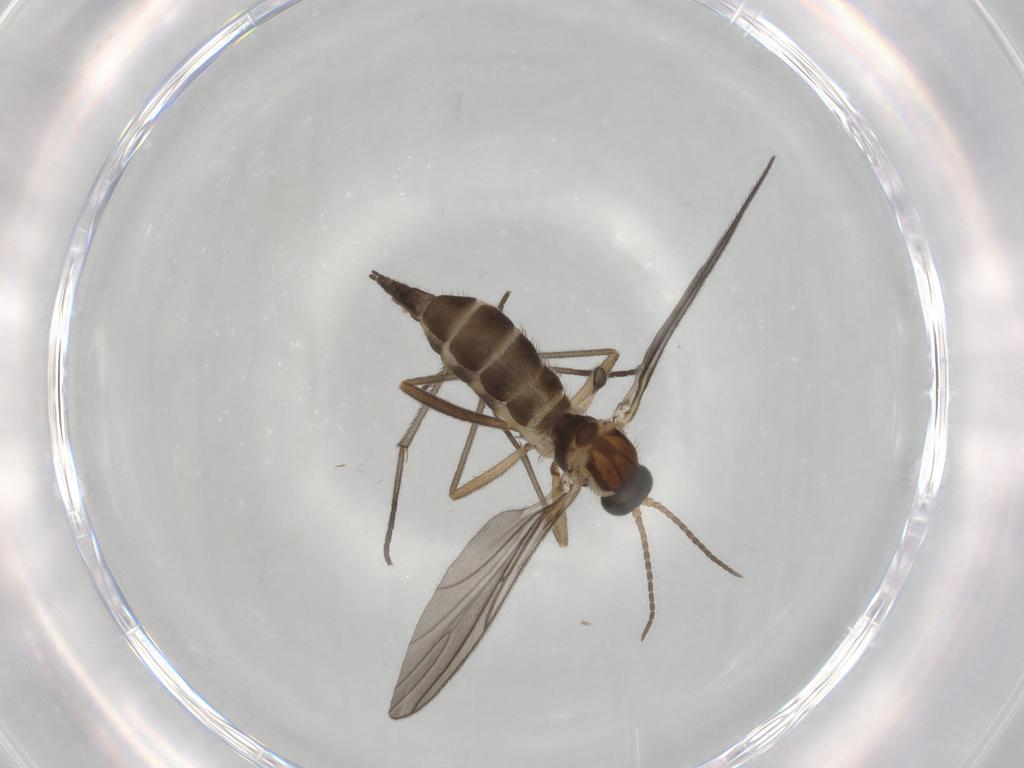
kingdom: Animalia
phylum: Arthropoda
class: Insecta
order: Diptera
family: Sciaridae
